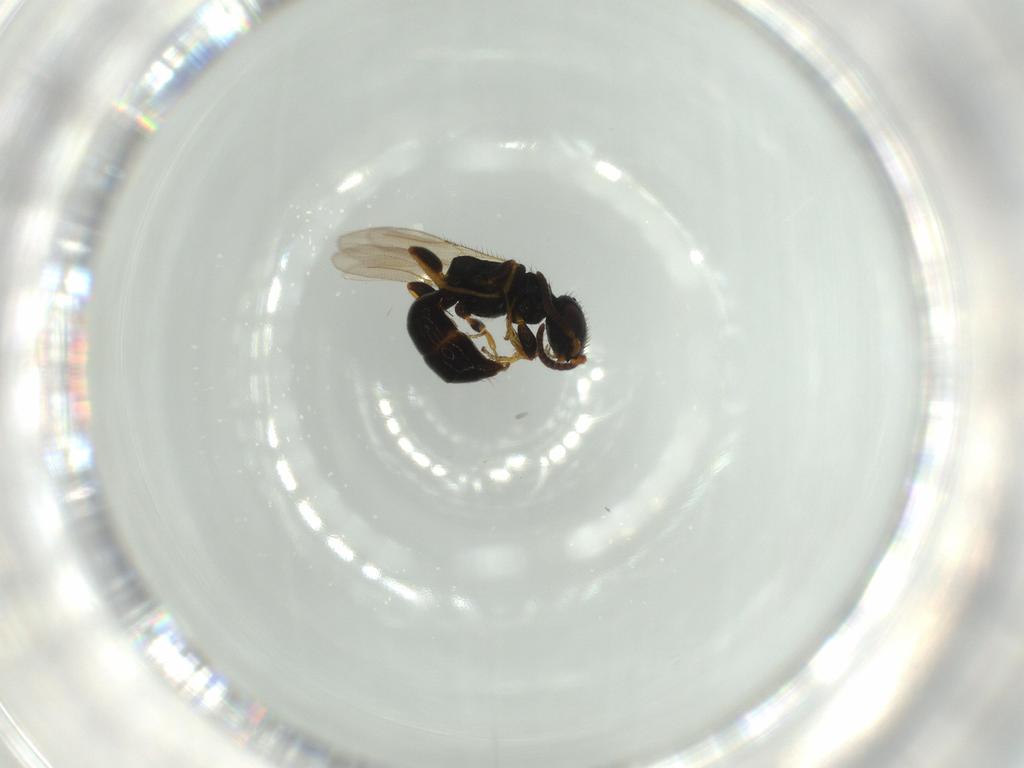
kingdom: Animalia
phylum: Arthropoda
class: Insecta
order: Hymenoptera
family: Bethylidae
